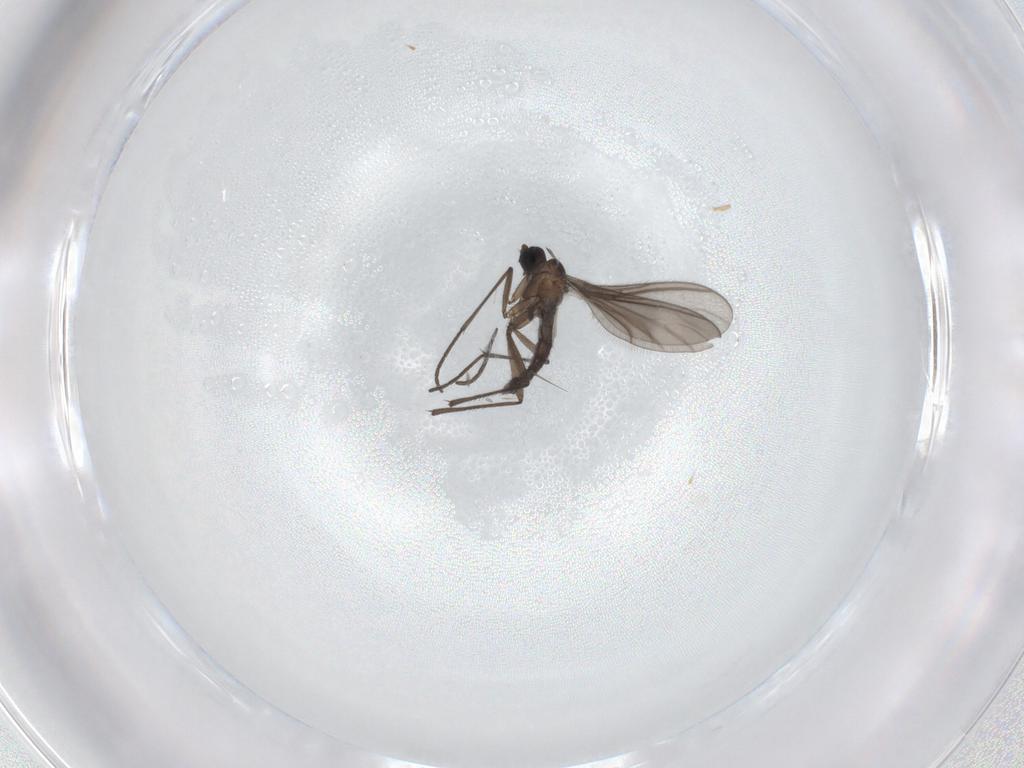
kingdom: Animalia
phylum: Arthropoda
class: Insecta
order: Diptera
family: Sciaridae
